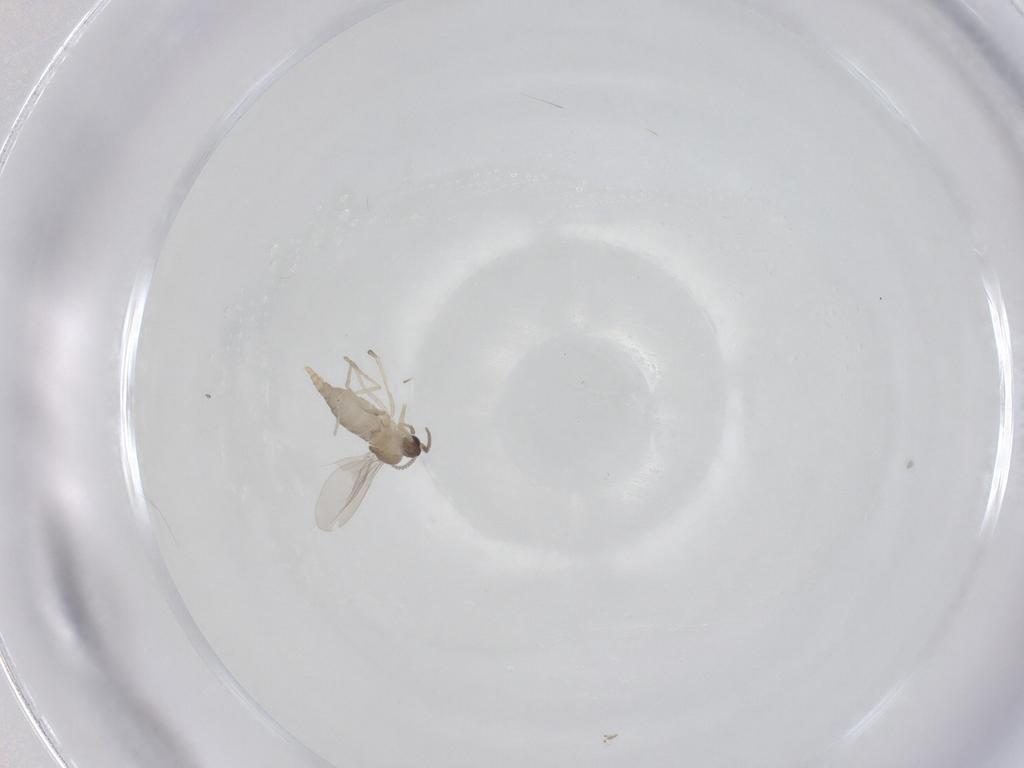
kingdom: Animalia
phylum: Arthropoda
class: Insecta
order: Diptera
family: Cecidomyiidae
